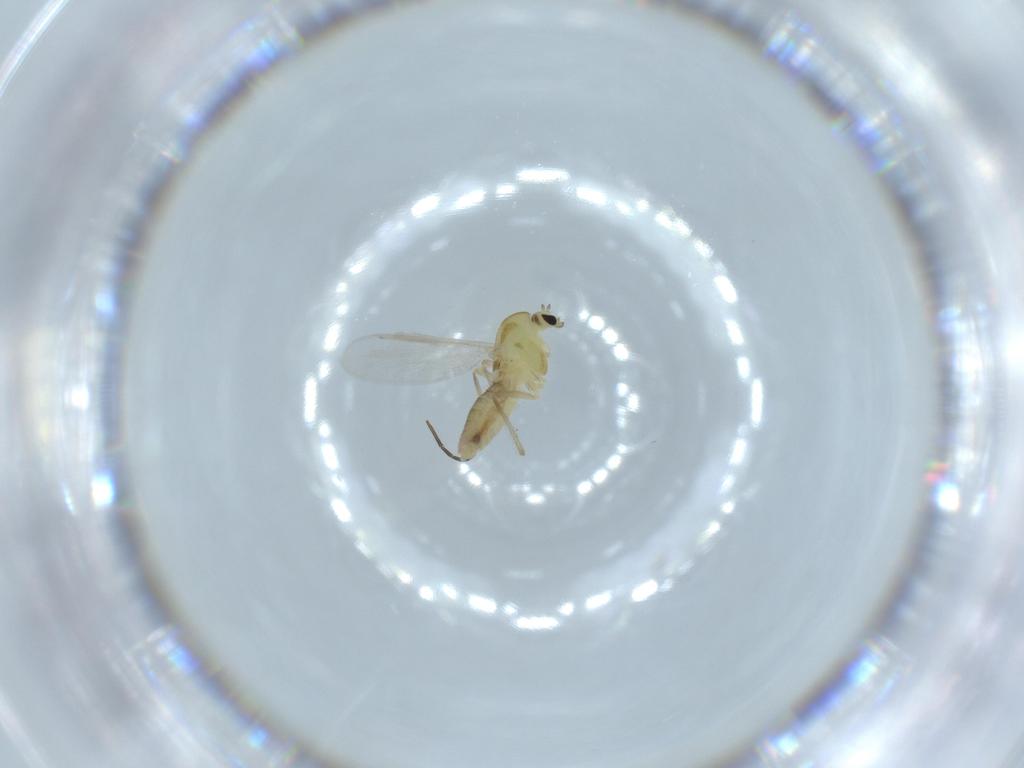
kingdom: Animalia
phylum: Arthropoda
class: Insecta
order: Diptera
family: Chironomidae
